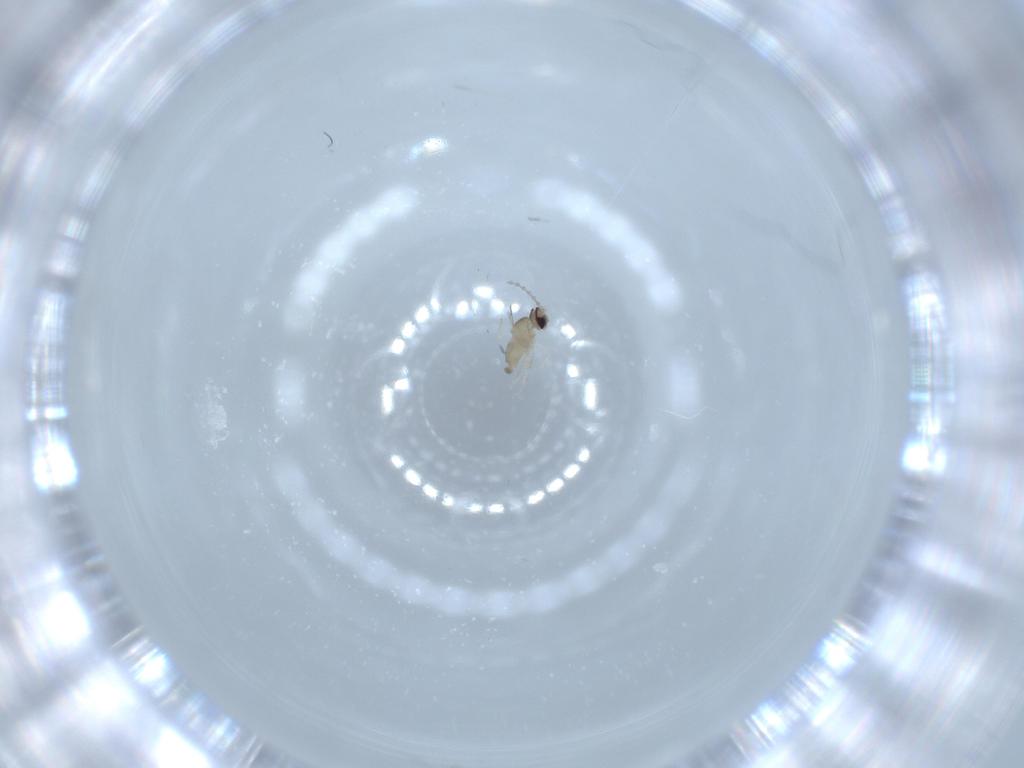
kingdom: Animalia
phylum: Arthropoda
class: Insecta
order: Diptera
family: Cecidomyiidae
